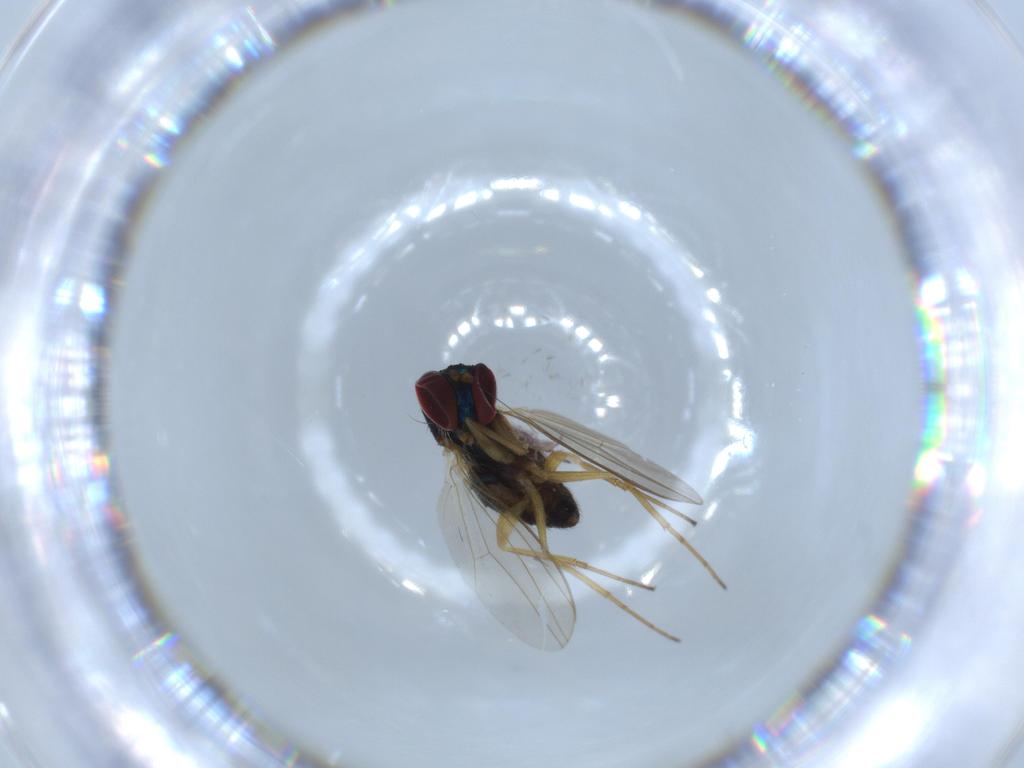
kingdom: Animalia
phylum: Arthropoda
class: Insecta
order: Diptera
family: Dolichopodidae
